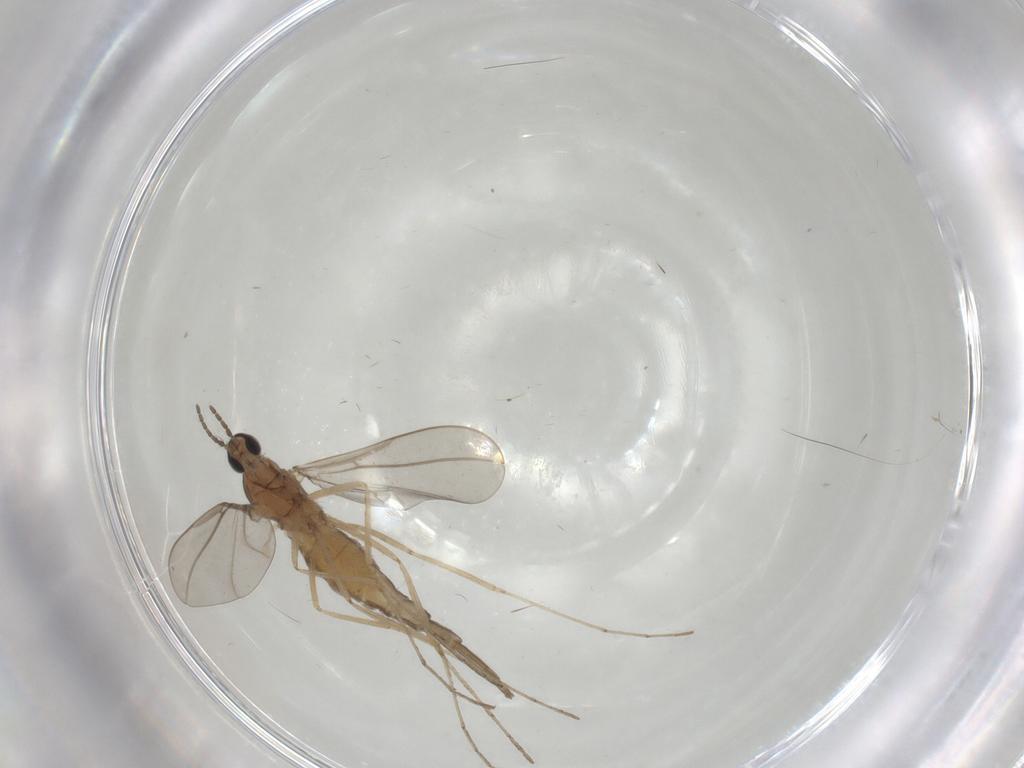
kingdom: Animalia
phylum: Arthropoda
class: Insecta
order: Diptera
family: Cecidomyiidae
